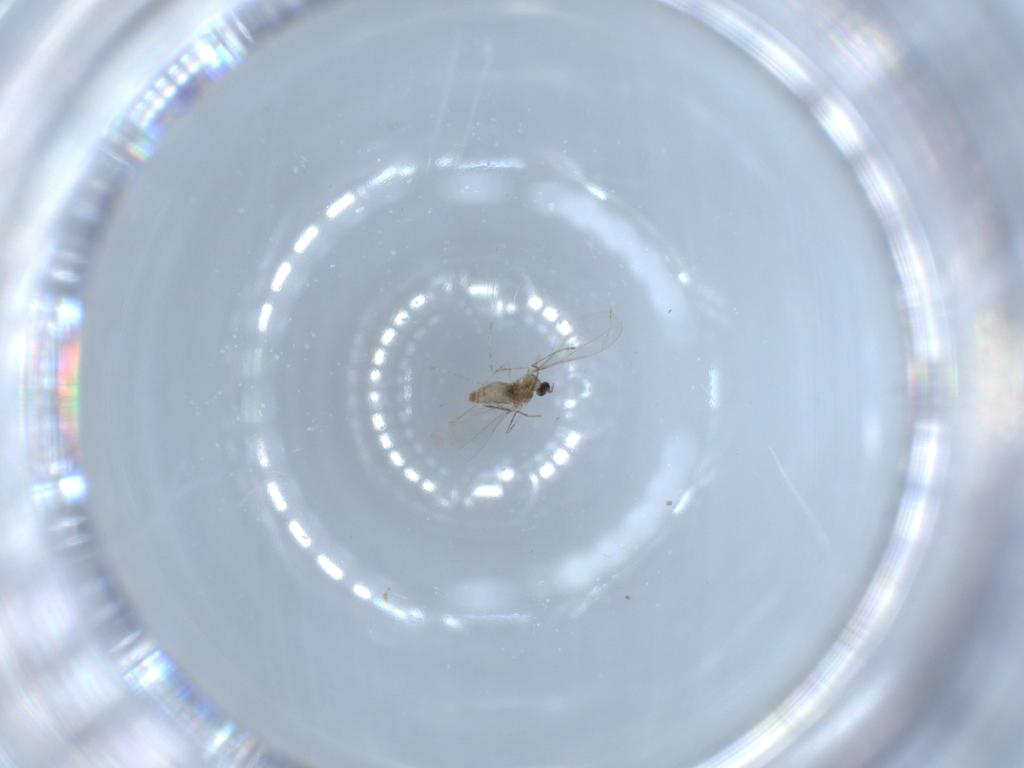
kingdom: Animalia
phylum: Arthropoda
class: Insecta
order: Diptera
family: Cecidomyiidae
